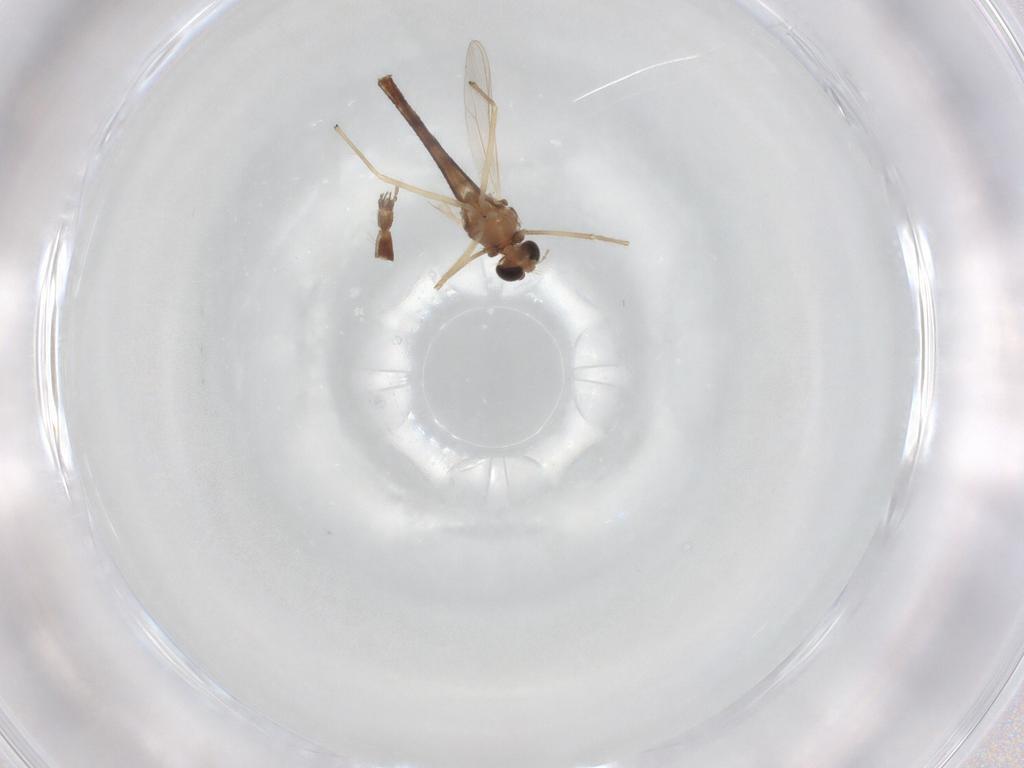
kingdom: Animalia
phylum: Arthropoda
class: Insecta
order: Diptera
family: Chironomidae
